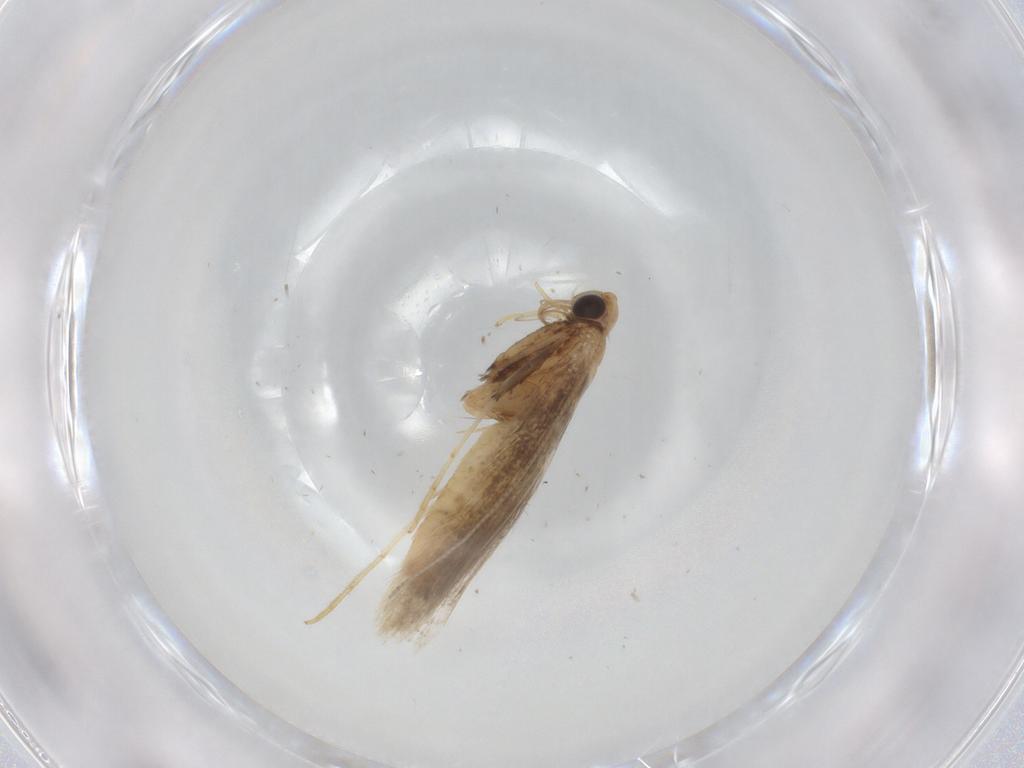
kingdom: Animalia
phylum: Arthropoda
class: Insecta
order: Lepidoptera
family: Gracillariidae
